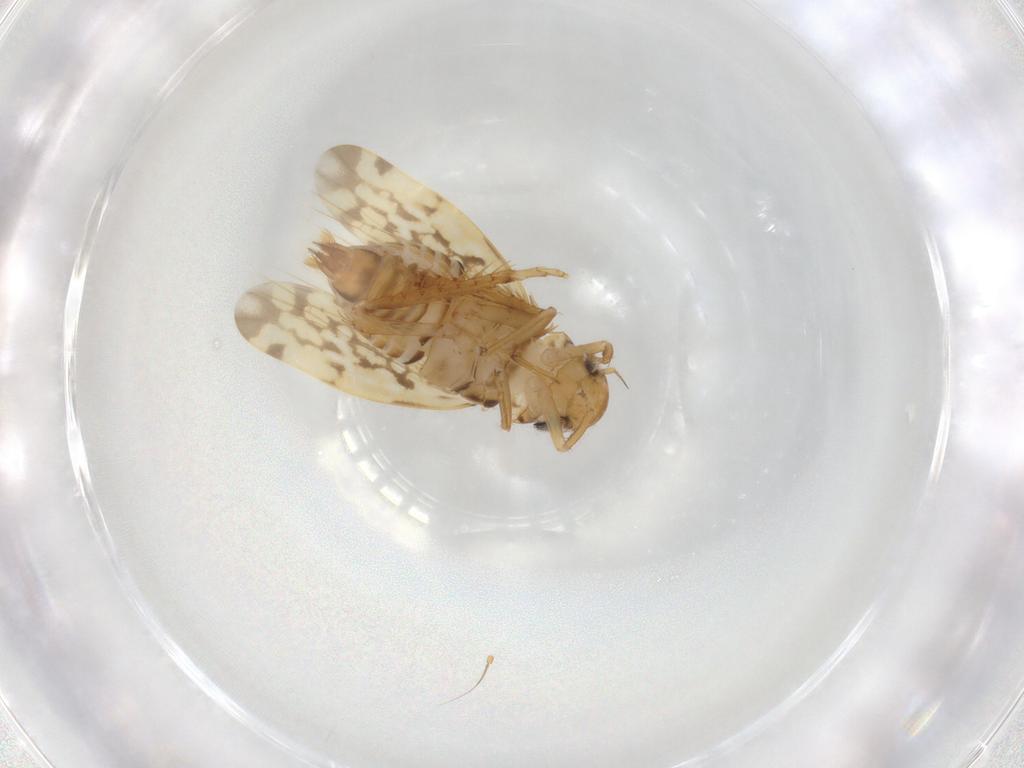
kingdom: Animalia
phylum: Arthropoda
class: Insecta
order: Hemiptera
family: Cicadellidae
